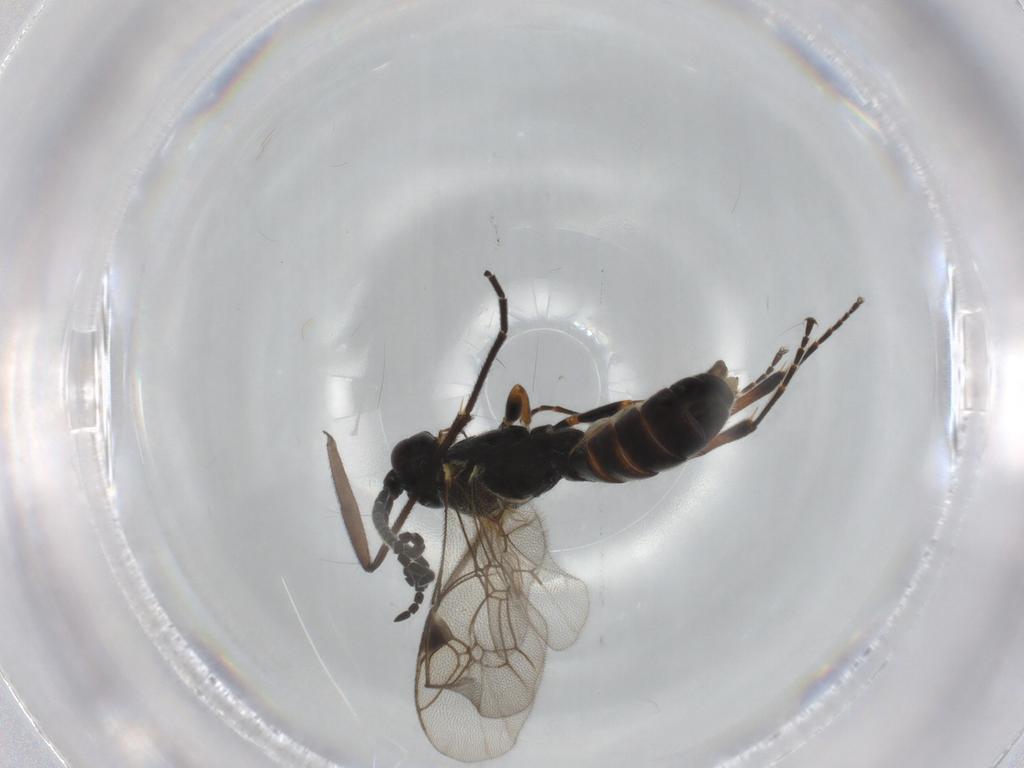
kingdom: Animalia
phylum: Arthropoda
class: Insecta
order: Hymenoptera
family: Ichneumonidae
